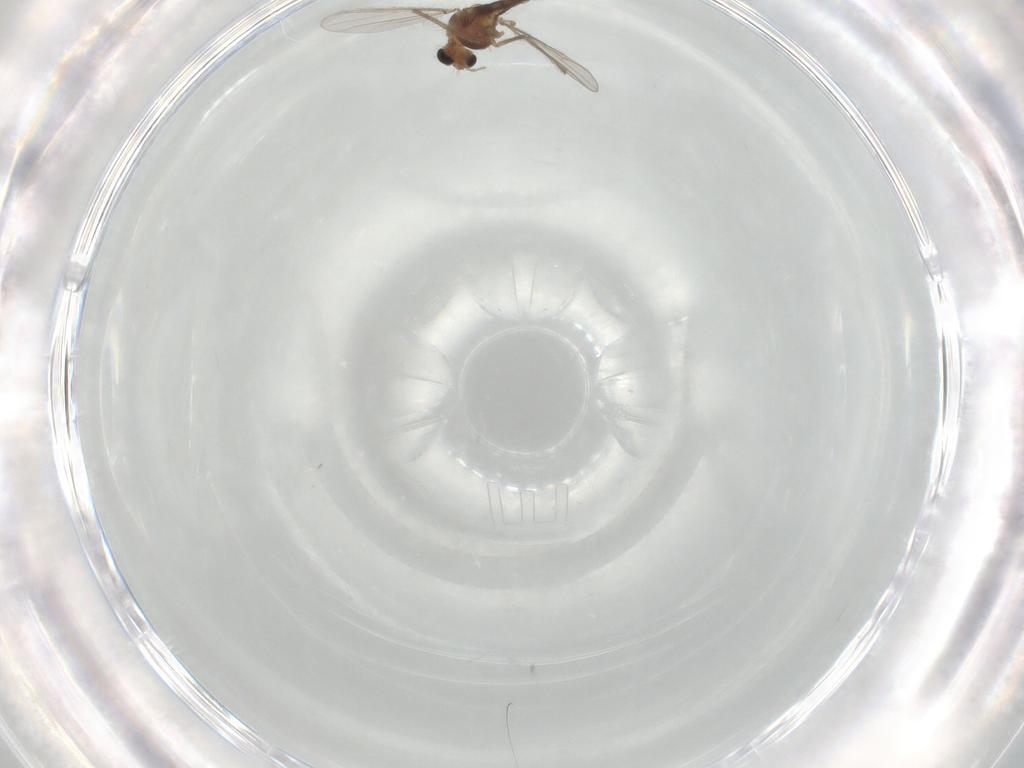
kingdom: Animalia
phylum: Arthropoda
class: Insecta
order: Diptera
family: Chironomidae
